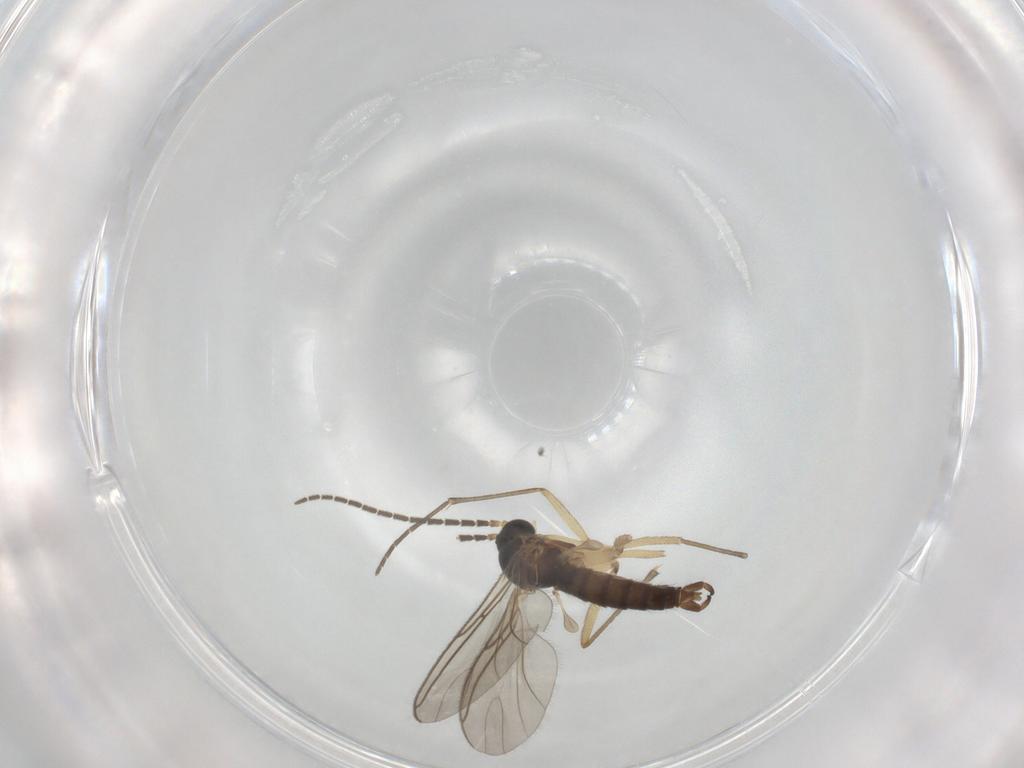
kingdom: Animalia
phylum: Arthropoda
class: Insecta
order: Diptera
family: Sciaridae
